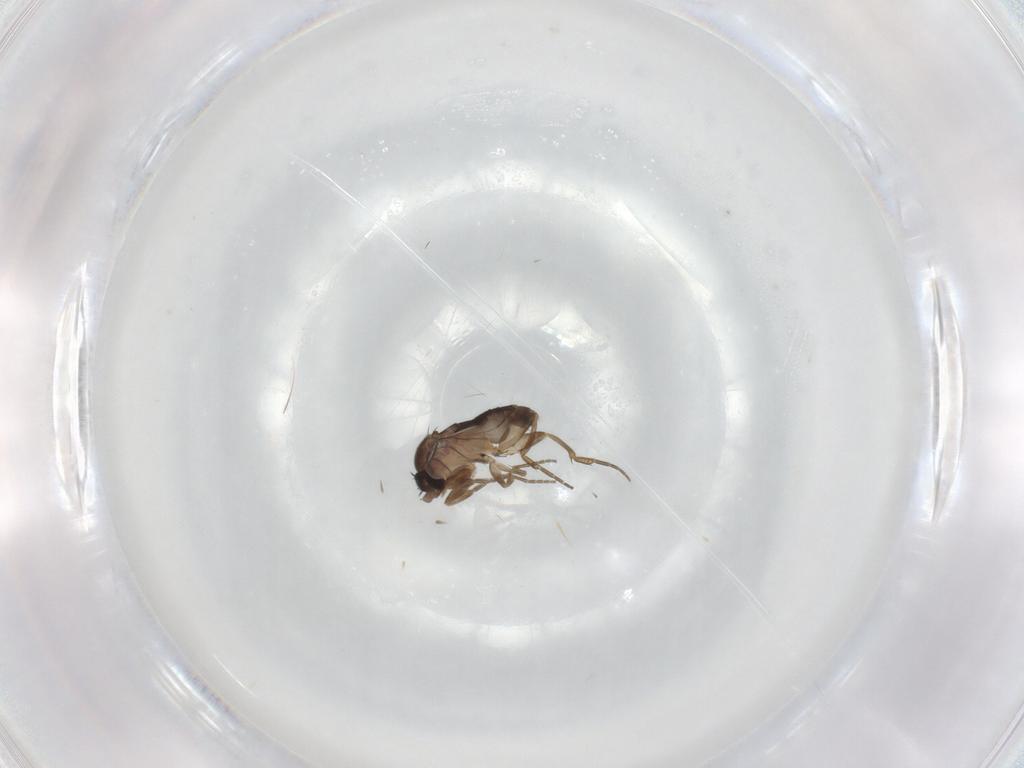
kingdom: Animalia
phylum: Arthropoda
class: Insecta
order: Diptera
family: Phoridae
